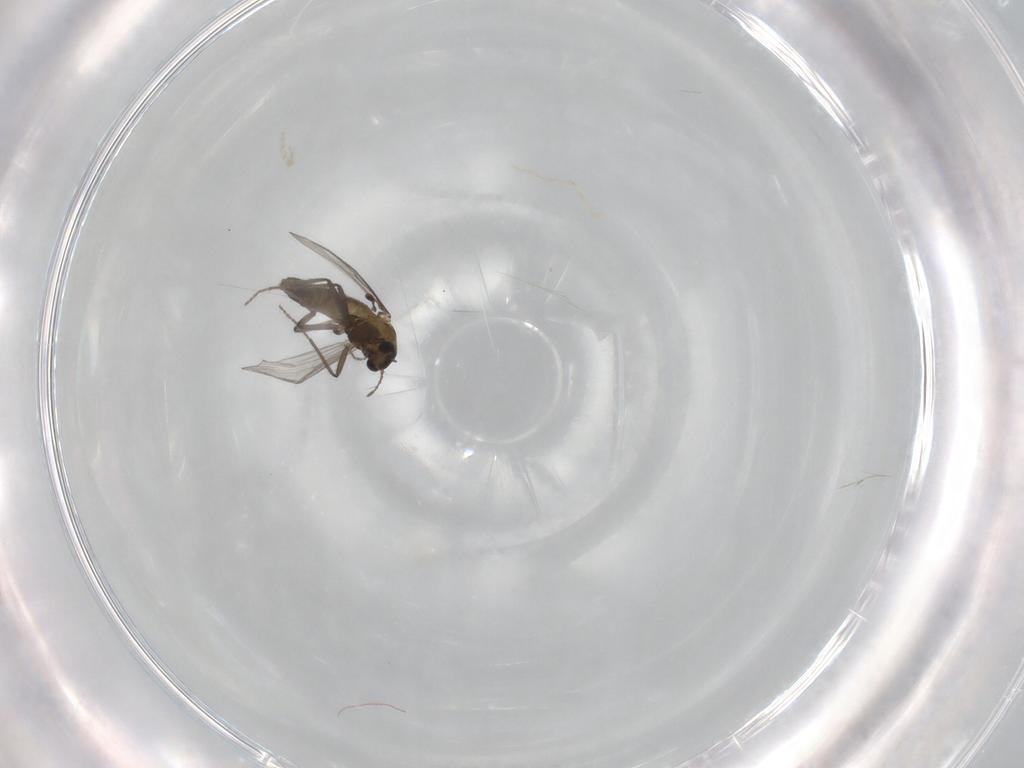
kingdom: Animalia
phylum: Arthropoda
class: Insecta
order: Diptera
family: Chironomidae
